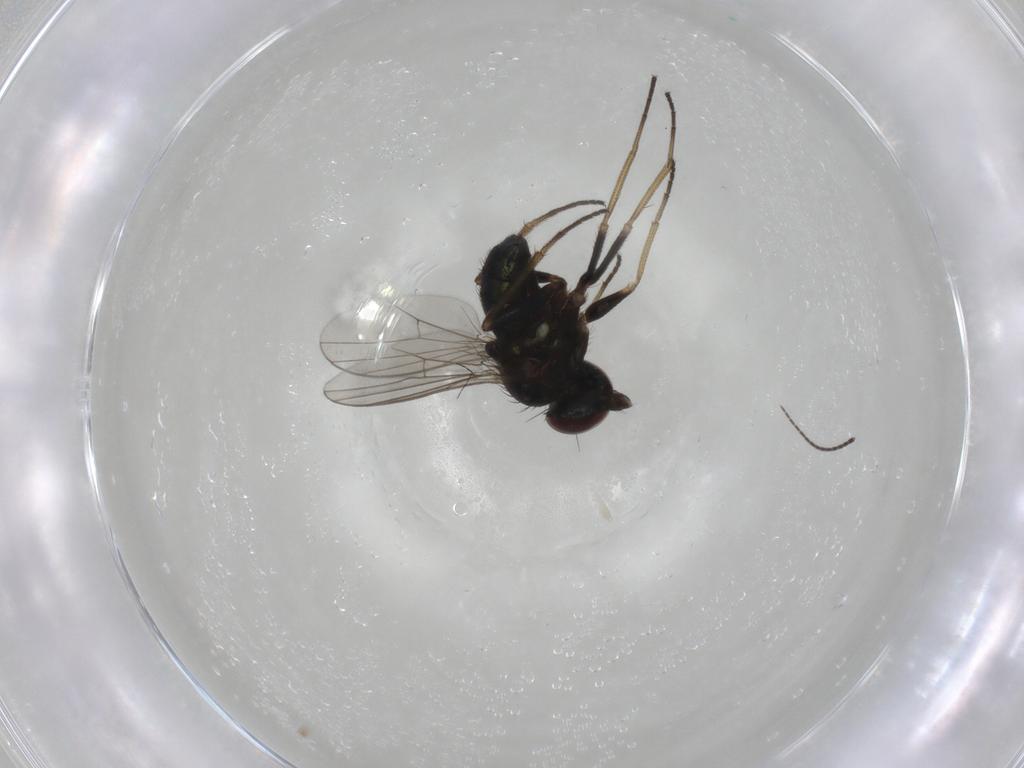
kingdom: Animalia
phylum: Arthropoda
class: Insecta
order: Diptera
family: Dolichopodidae
